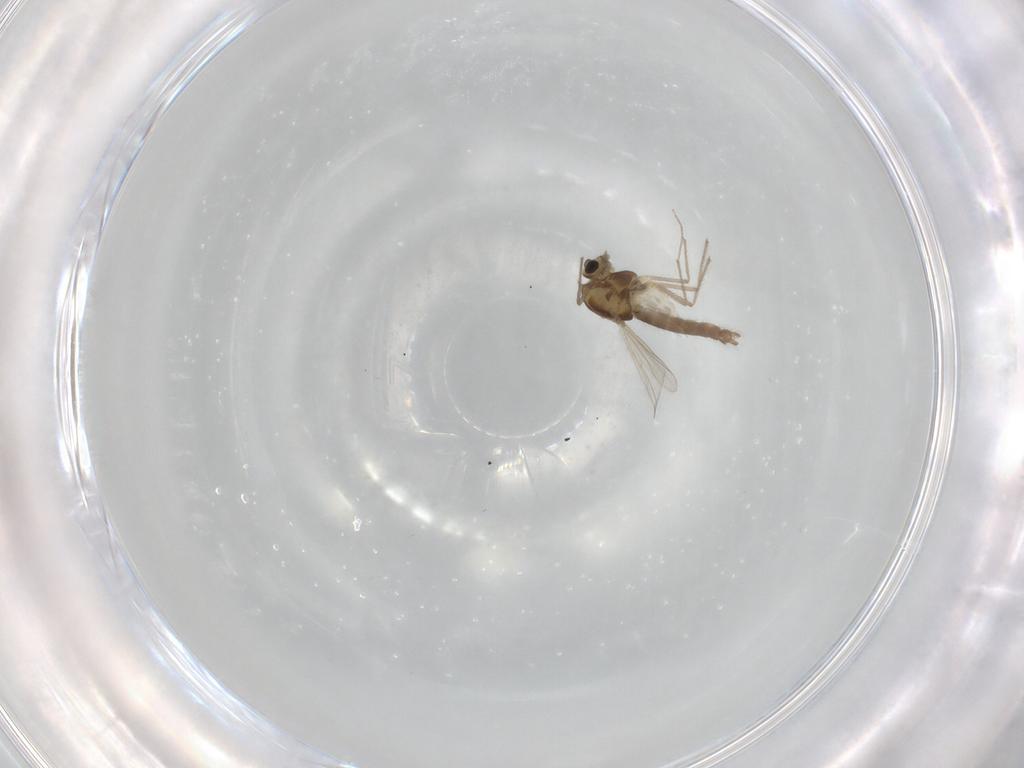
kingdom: Animalia
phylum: Arthropoda
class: Insecta
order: Diptera
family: Chironomidae
